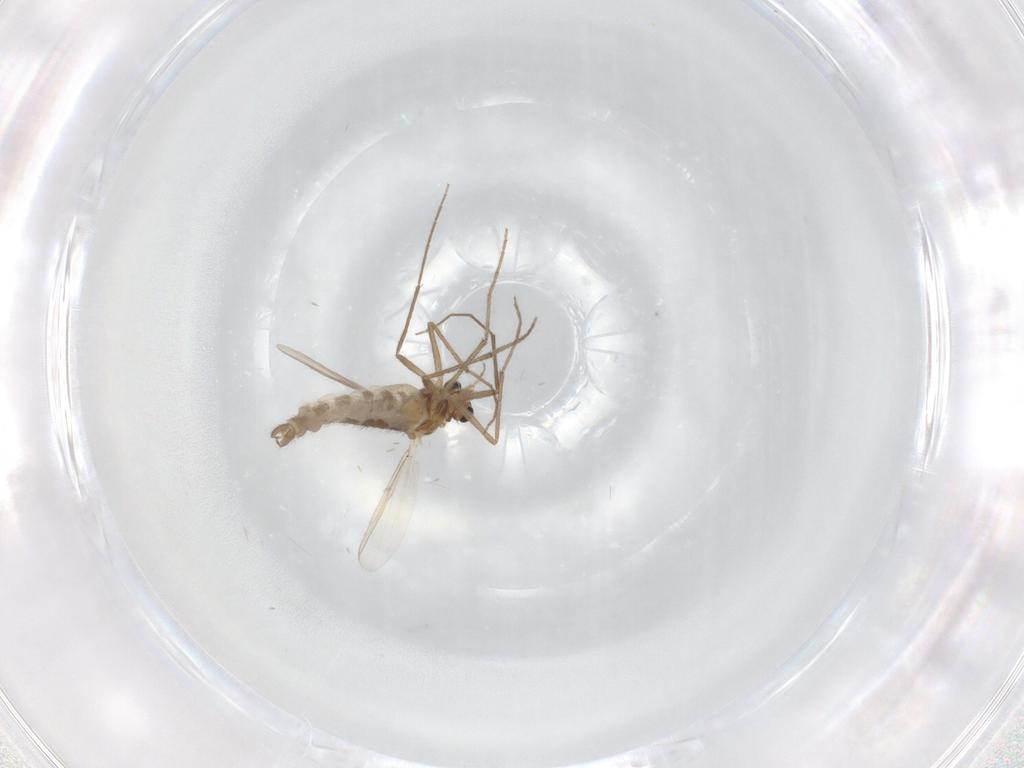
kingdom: Animalia
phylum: Arthropoda
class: Insecta
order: Diptera
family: Chironomidae
